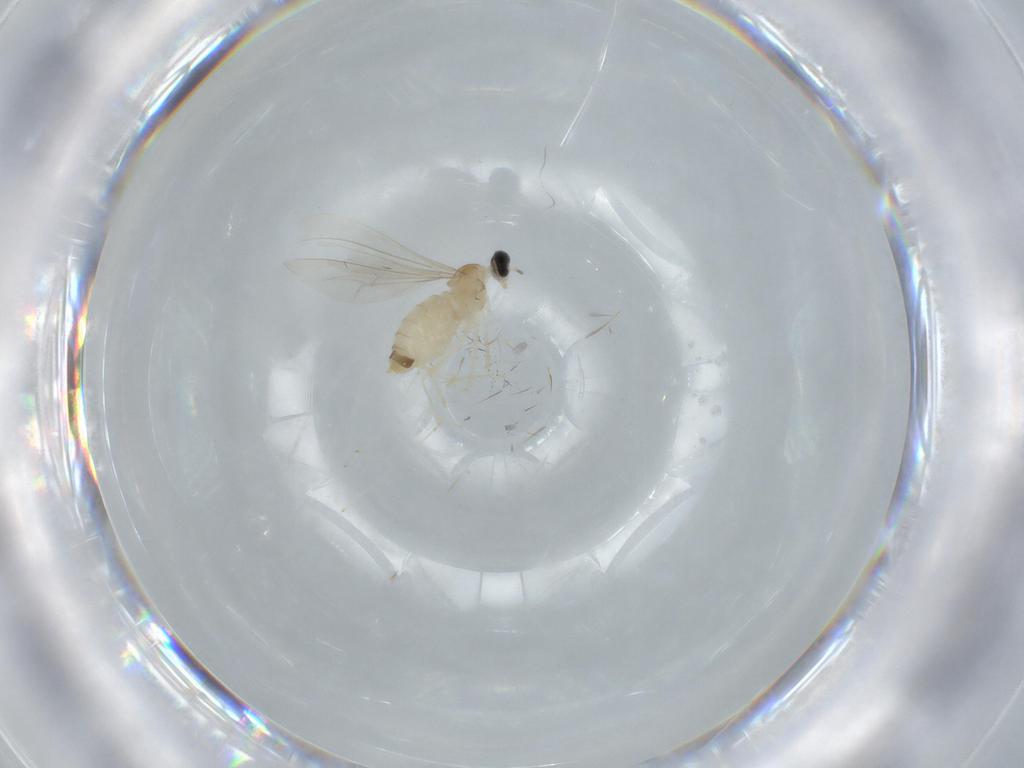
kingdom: Animalia
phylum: Arthropoda
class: Insecta
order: Diptera
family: Cecidomyiidae
